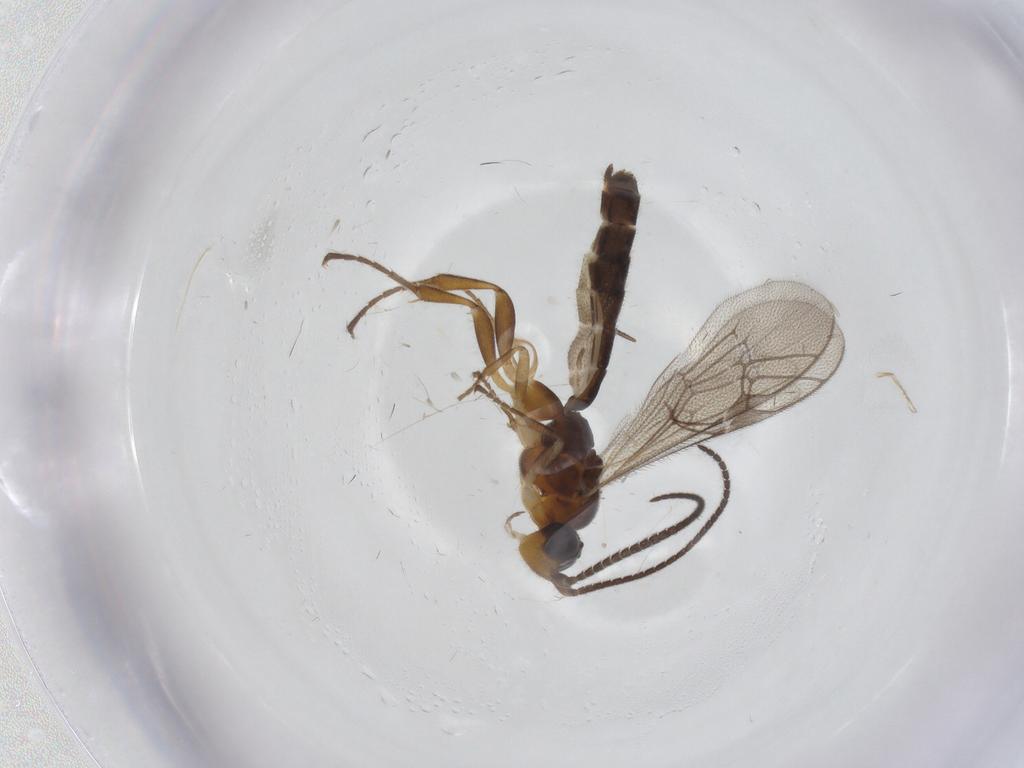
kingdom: Animalia
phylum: Arthropoda
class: Insecta
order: Hymenoptera
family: Ichneumonidae
